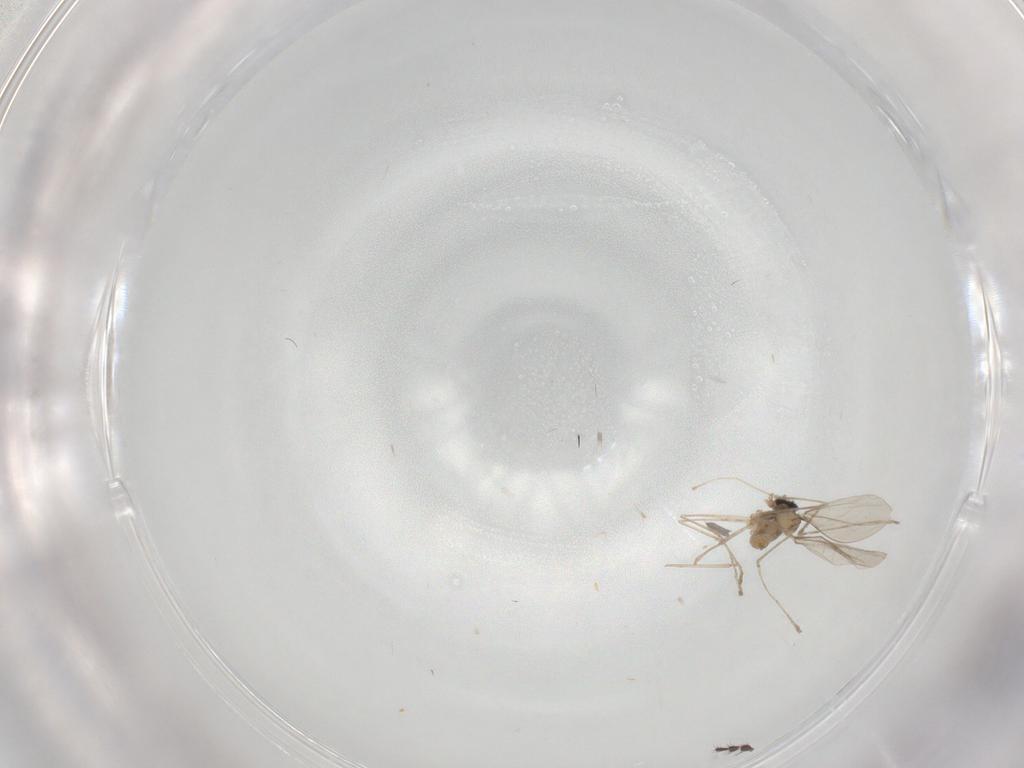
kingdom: Animalia
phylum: Arthropoda
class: Insecta
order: Diptera
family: Cecidomyiidae
